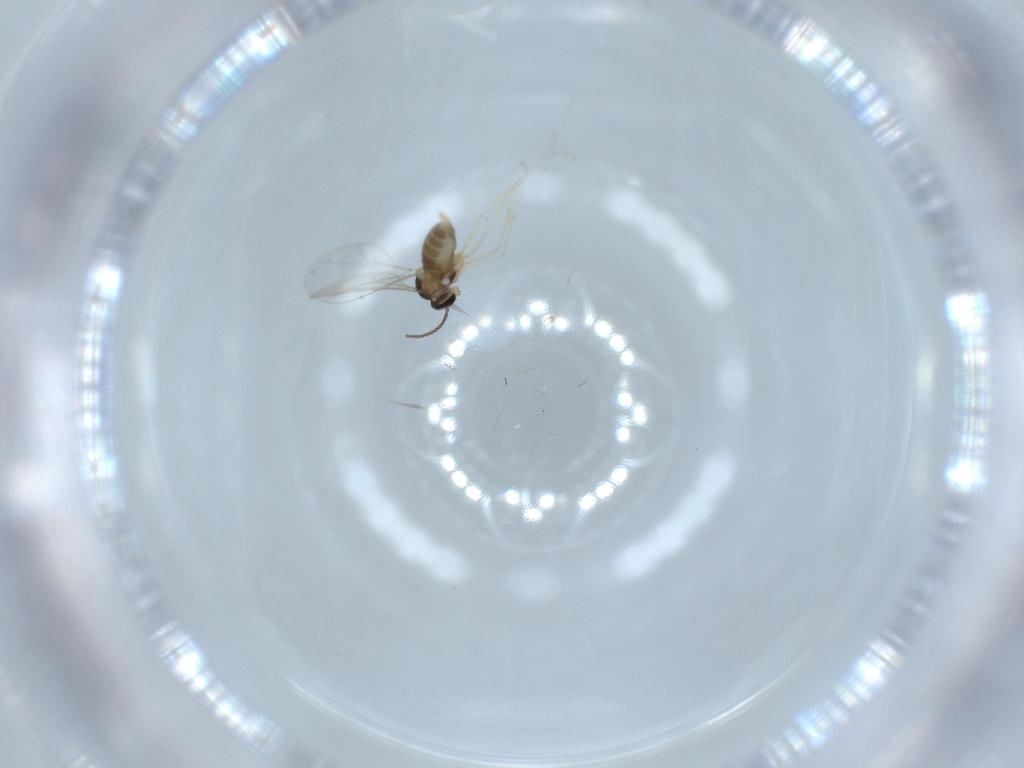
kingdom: Animalia
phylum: Arthropoda
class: Insecta
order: Diptera
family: Cecidomyiidae
